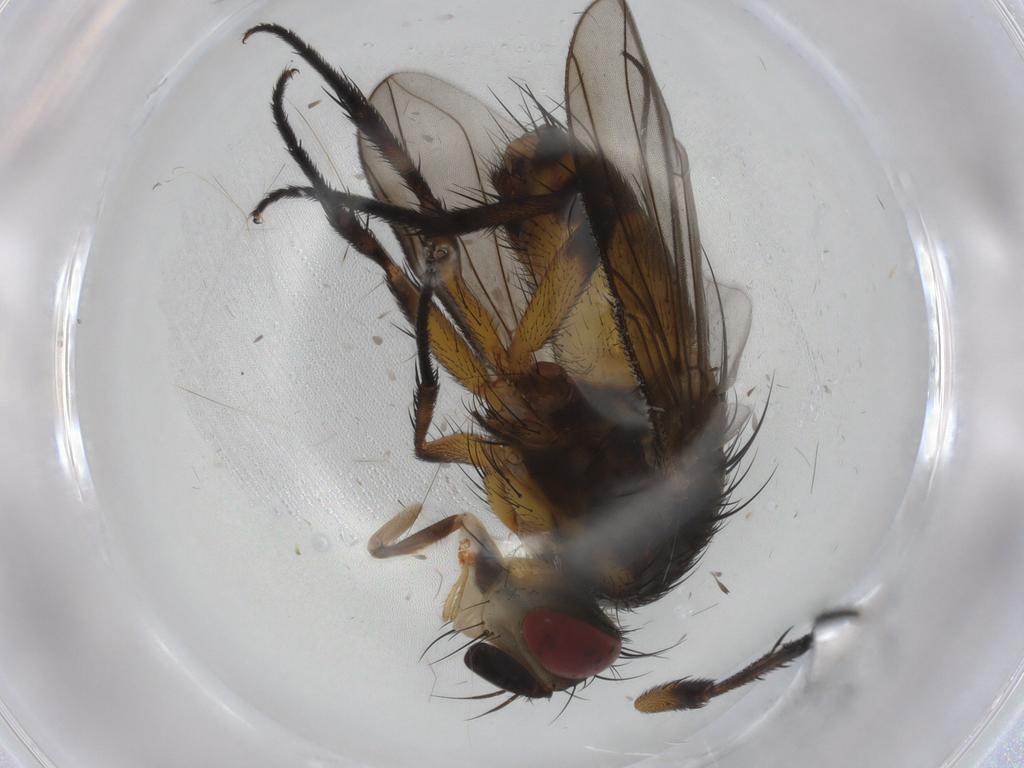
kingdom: Animalia
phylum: Arthropoda
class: Insecta
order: Diptera
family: Tachinidae
